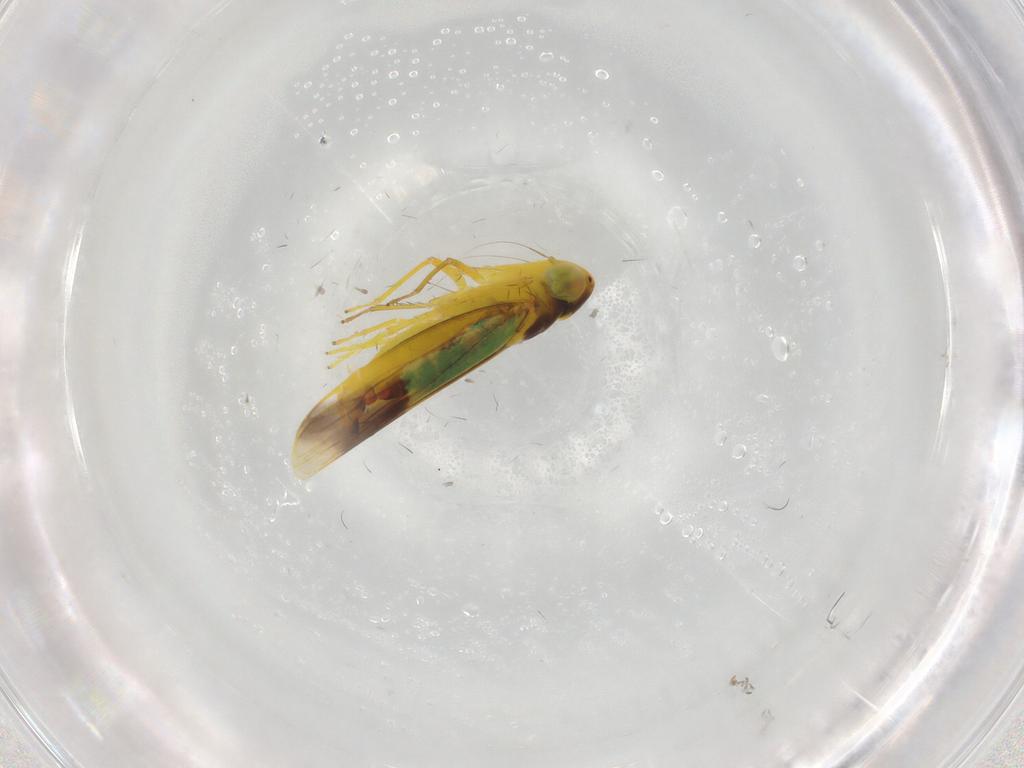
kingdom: Animalia
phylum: Arthropoda
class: Insecta
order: Hemiptera
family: Cicadellidae
